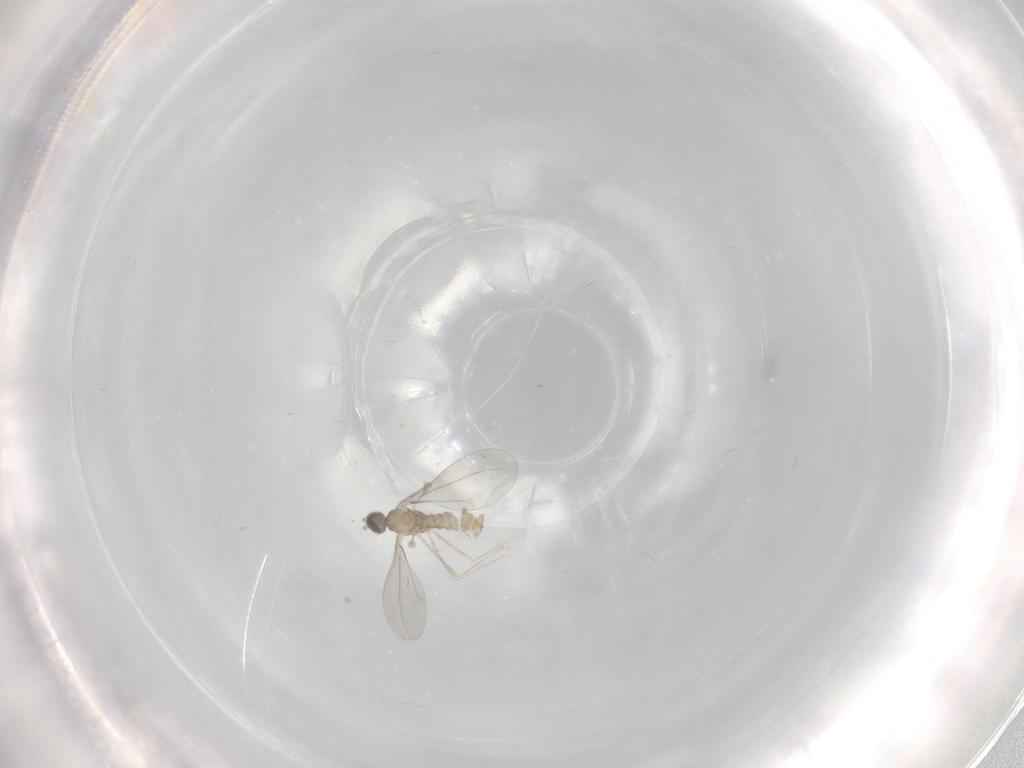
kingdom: Animalia
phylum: Arthropoda
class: Insecta
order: Diptera
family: Cecidomyiidae
